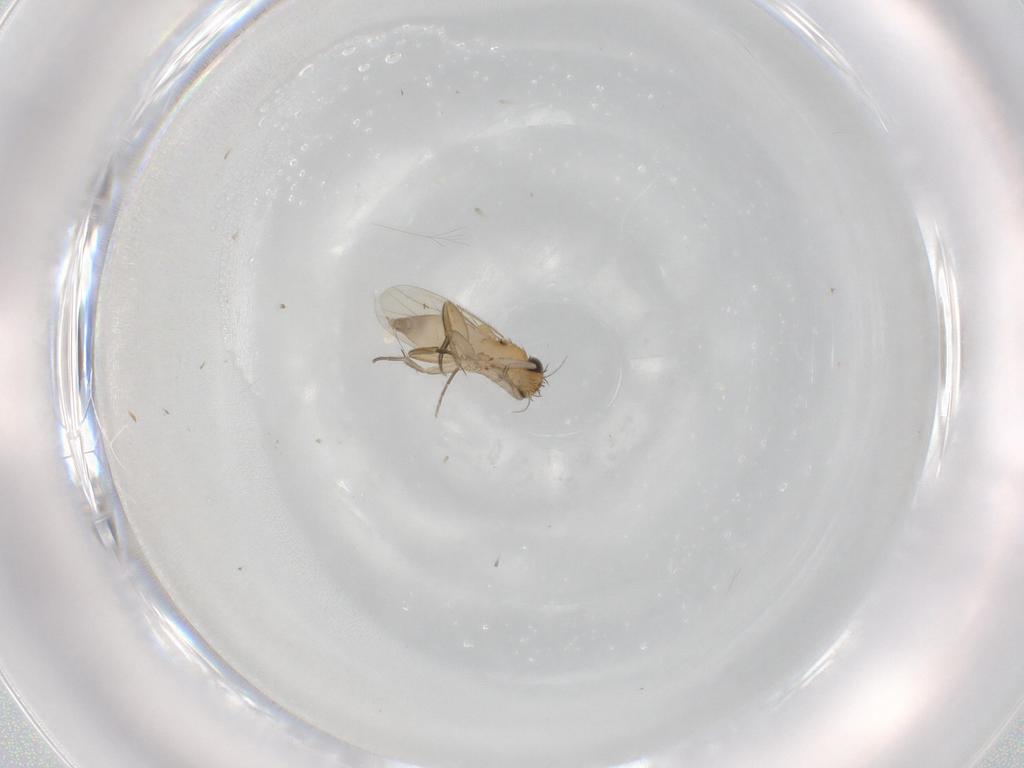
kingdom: Animalia
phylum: Arthropoda
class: Insecta
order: Diptera
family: Phoridae
